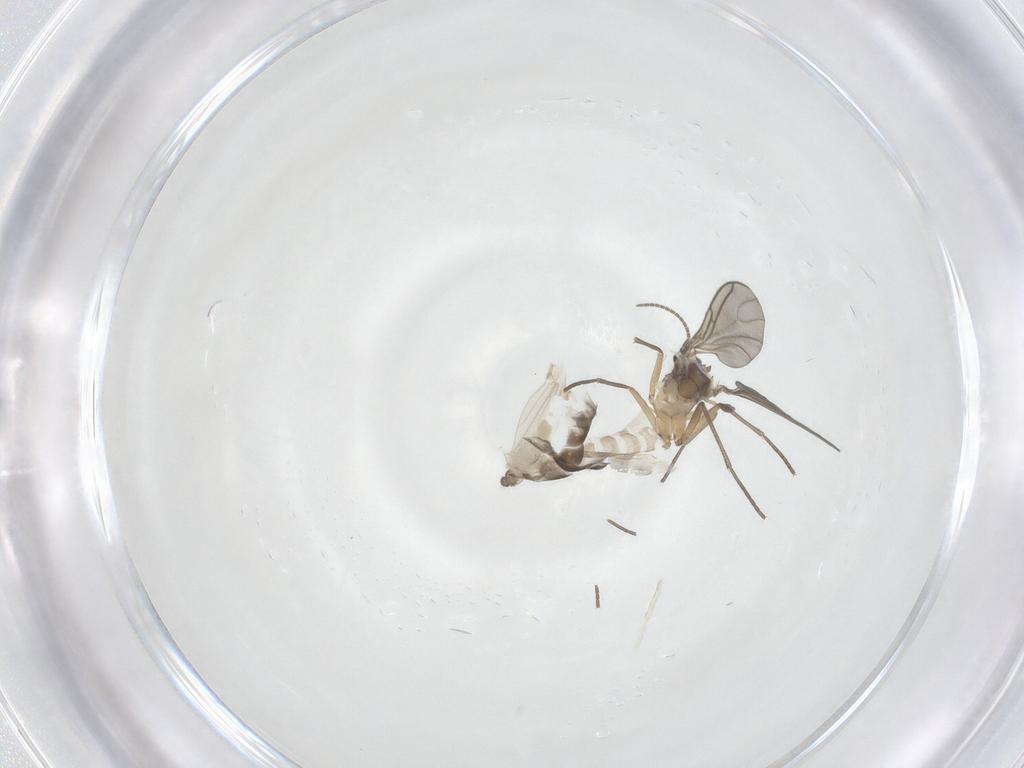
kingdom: Animalia
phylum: Arthropoda
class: Insecta
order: Diptera
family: Sciaridae
